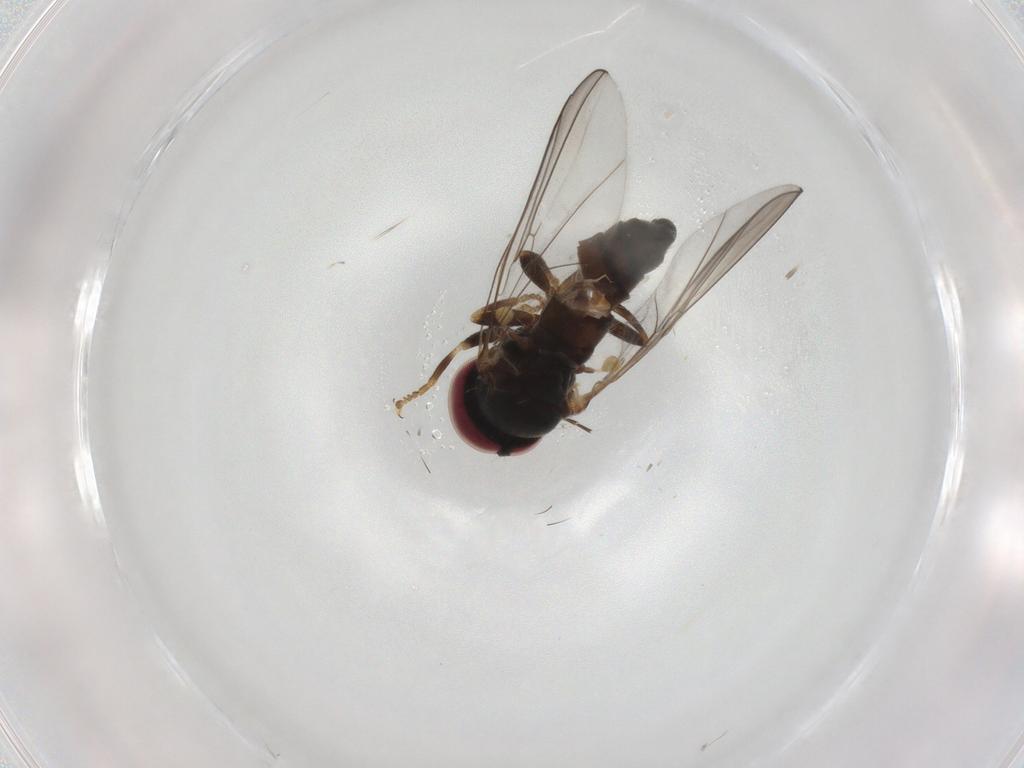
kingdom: Animalia
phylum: Arthropoda
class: Insecta
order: Diptera
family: Pipunculidae
